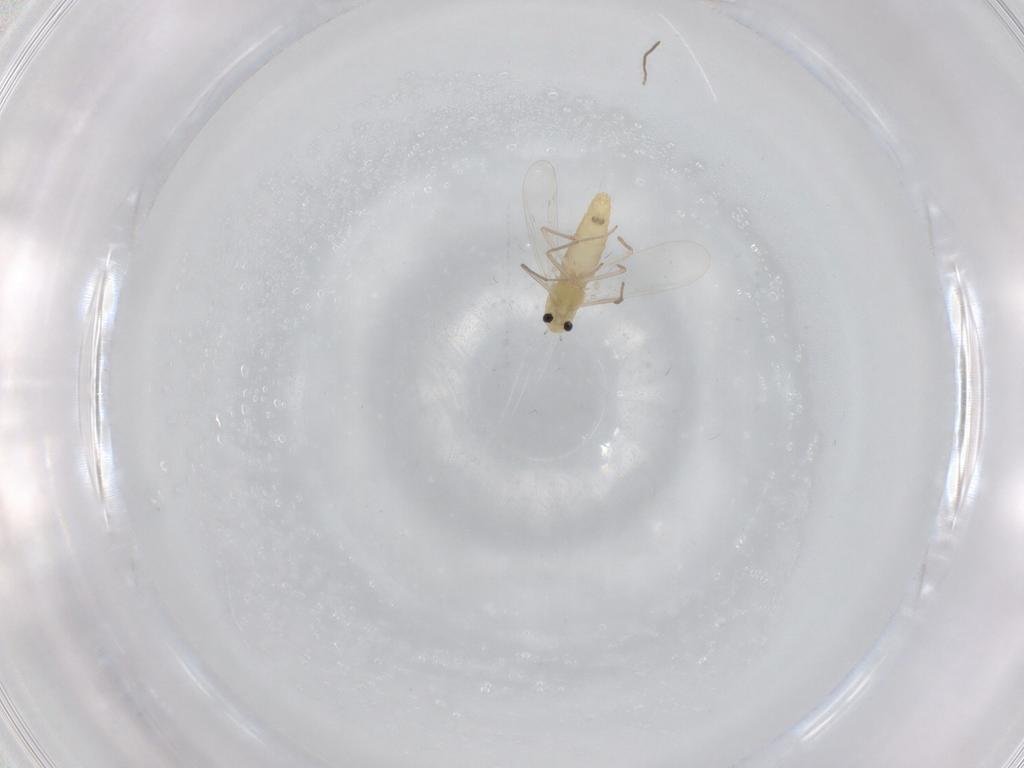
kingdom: Animalia
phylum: Arthropoda
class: Insecta
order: Diptera
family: Chironomidae
